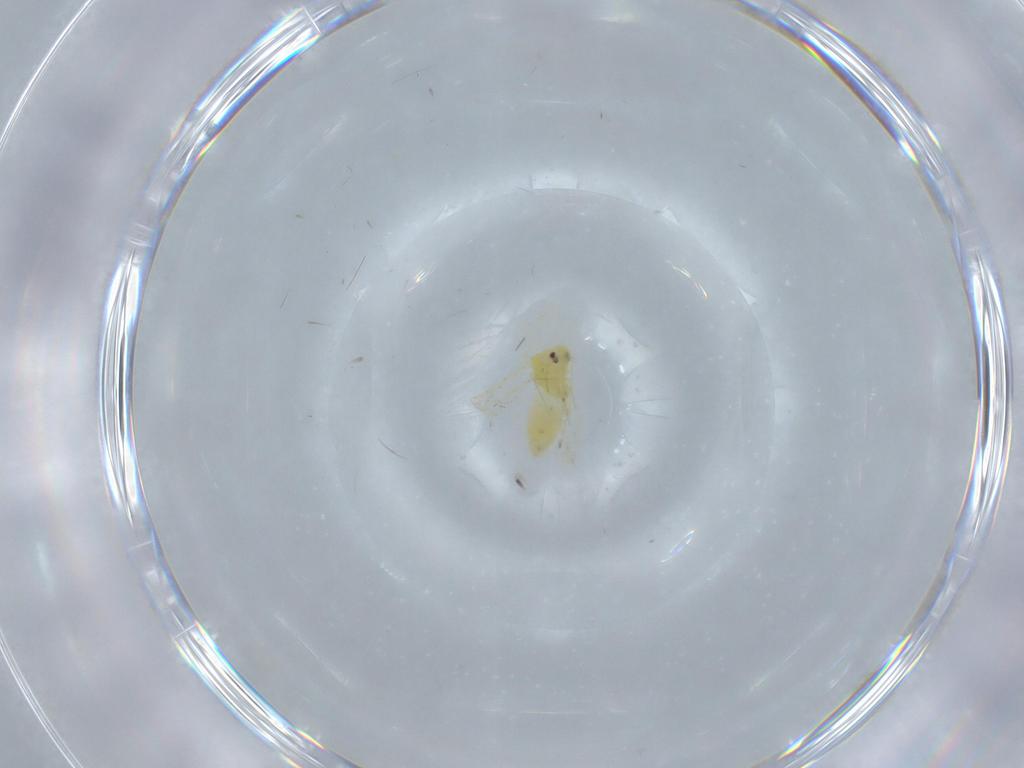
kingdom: Animalia
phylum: Arthropoda
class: Insecta
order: Hemiptera
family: Aleyrodidae
